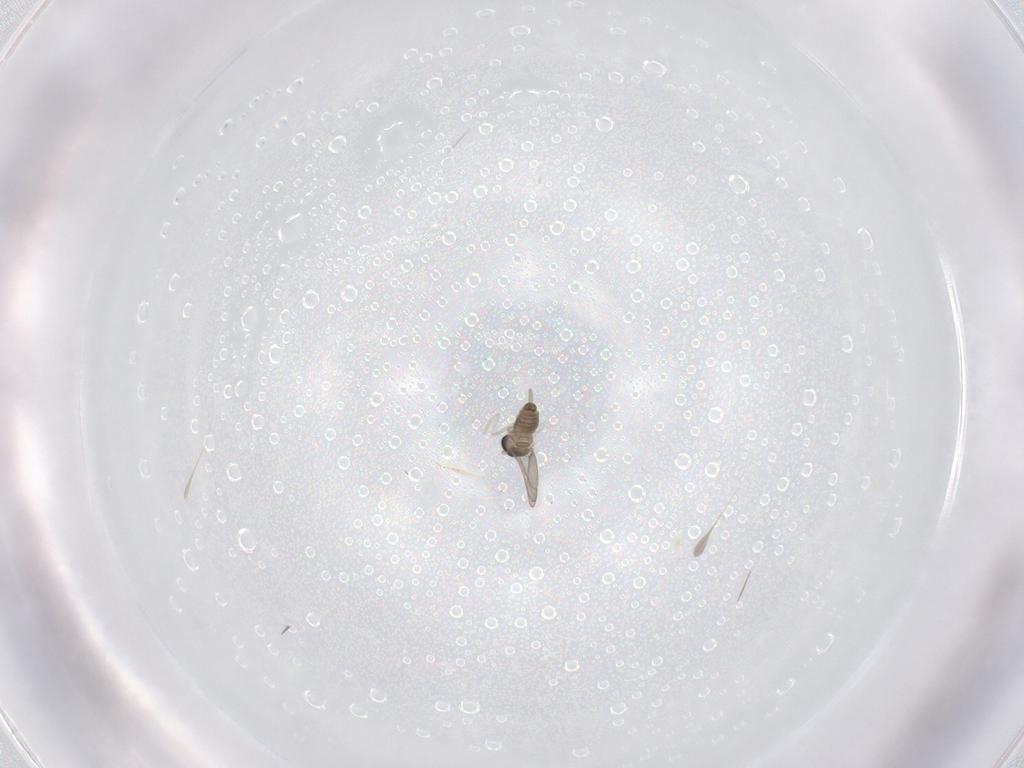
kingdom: Animalia
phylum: Arthropoda
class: Insecta
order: Diptera
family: Cecidomyiidae
